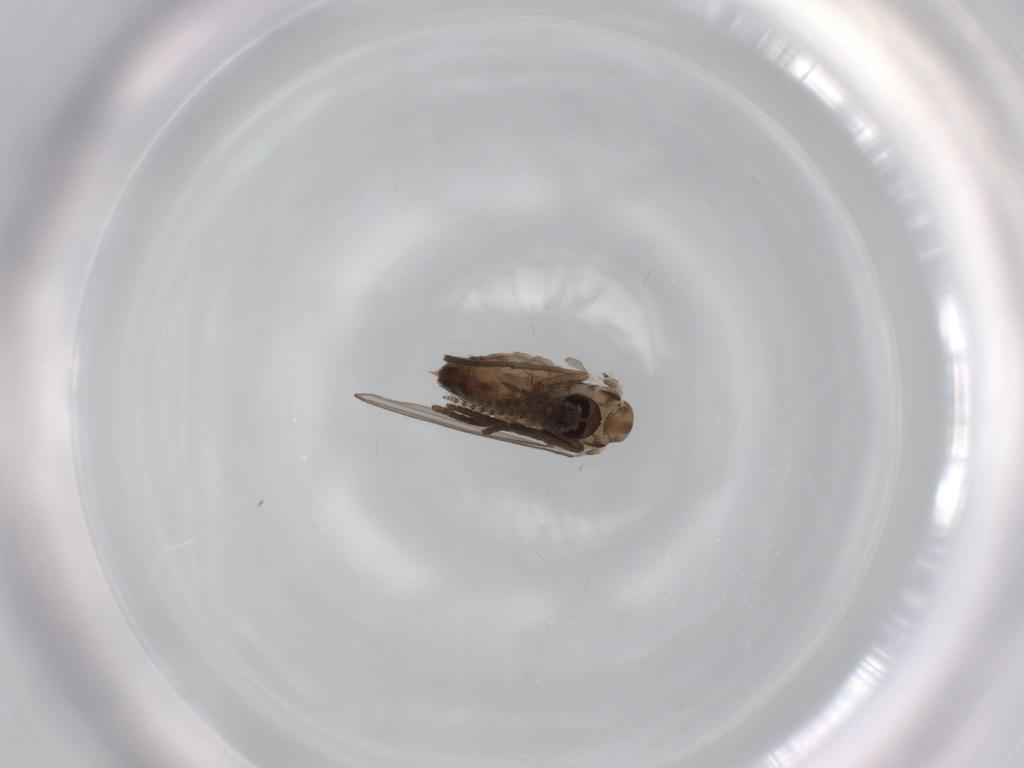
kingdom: Animalia
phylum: Arthropoda
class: Insecta
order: Diptera
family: Psychodidae
